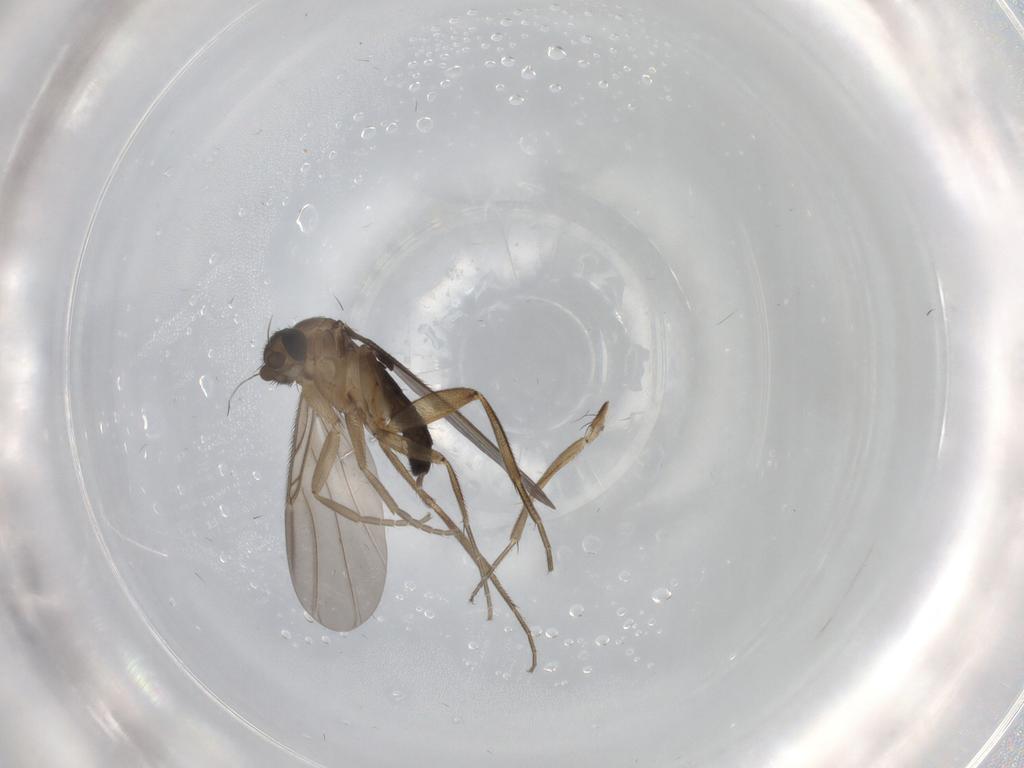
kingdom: Animalia
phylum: Arthropoda
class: Insecta
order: Diptera
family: Phoridae
